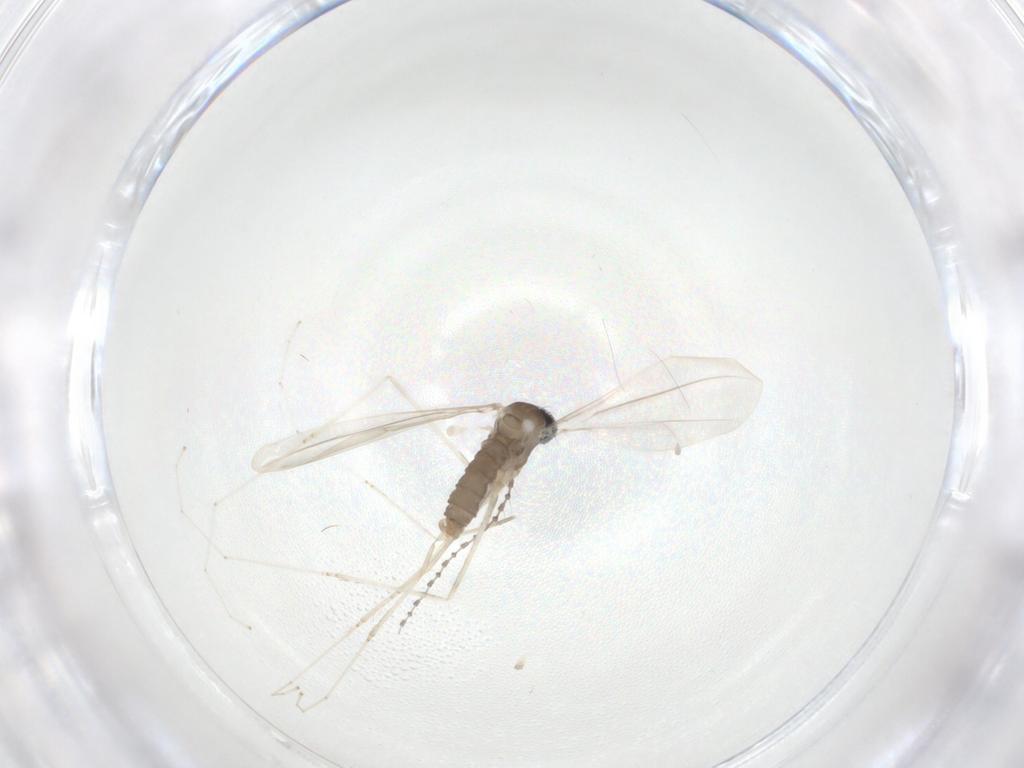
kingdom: Animalia
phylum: Arthropoda
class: Insecta
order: Diptera
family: Cecidomyiidae
